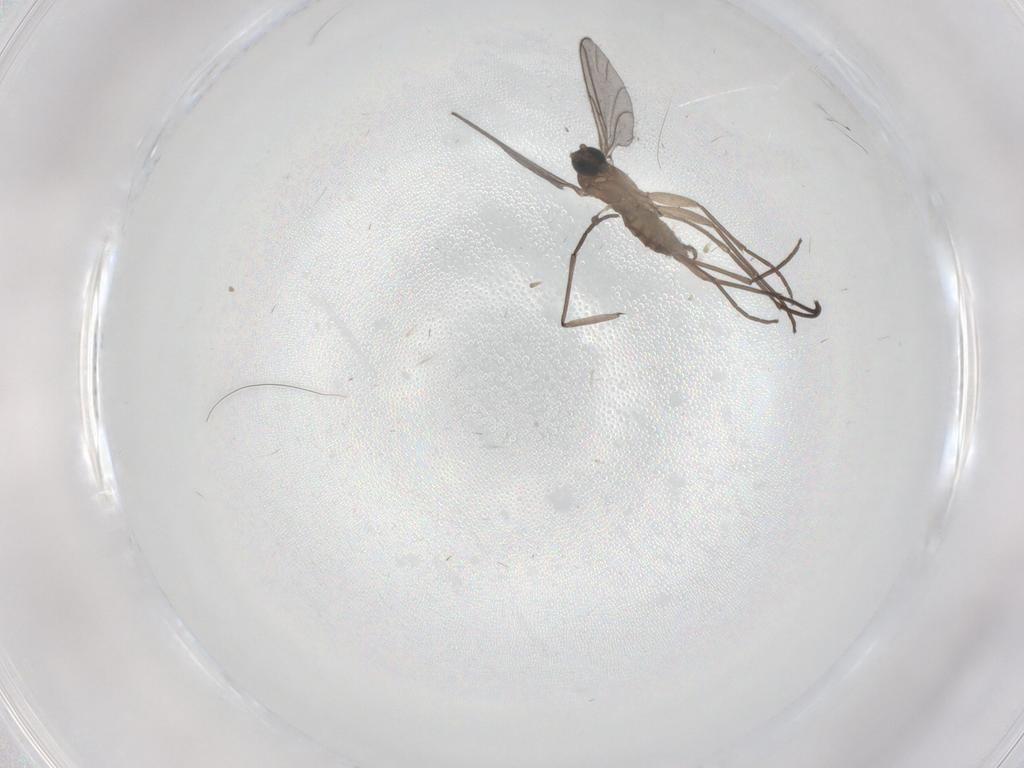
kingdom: Animalia
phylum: Arthropoda
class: Insecta
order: Diptera
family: Sciaridae
